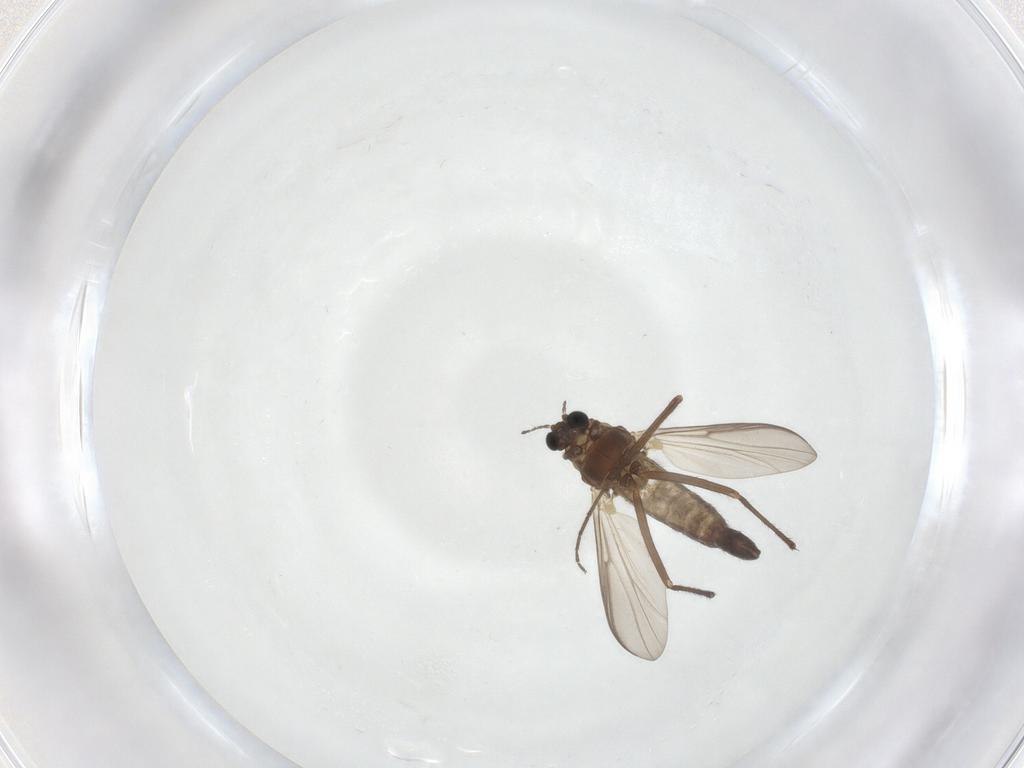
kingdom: Animalia
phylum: Arthropoda
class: Insecta
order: Diptera
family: Chironomidae
